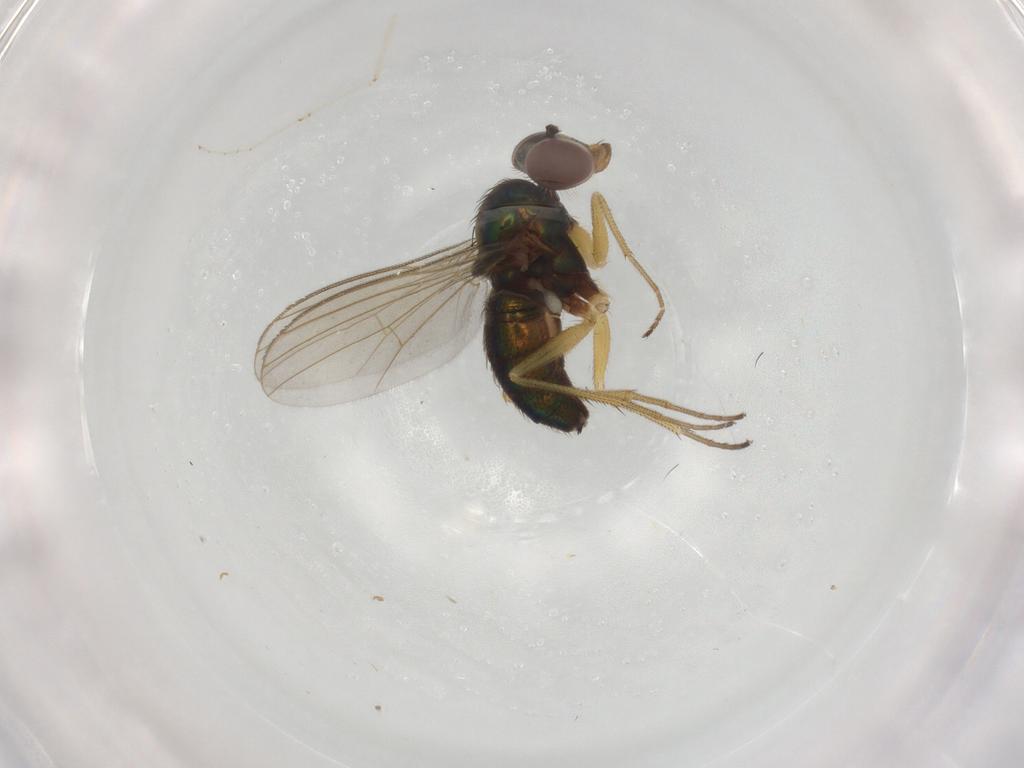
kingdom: Animalia
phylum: Arthropoda
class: Insecta
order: Diptera
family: Dolichopodidae
